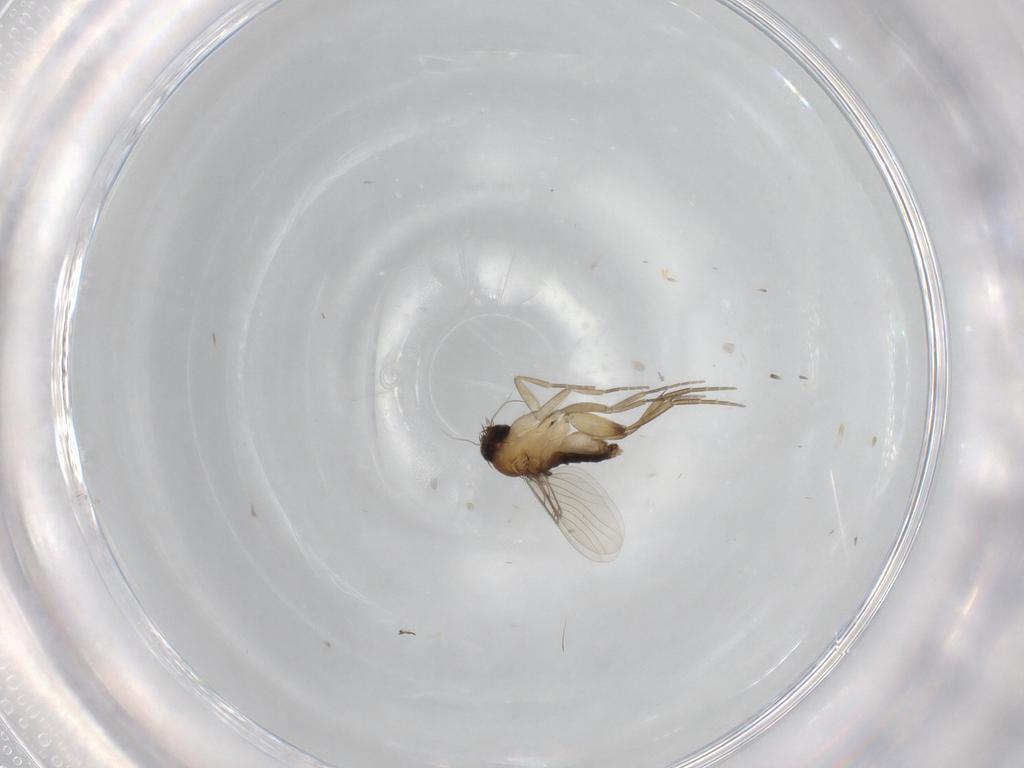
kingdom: Animalia
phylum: Arthropoda
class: Insecta
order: Diptera
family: Phoridae
